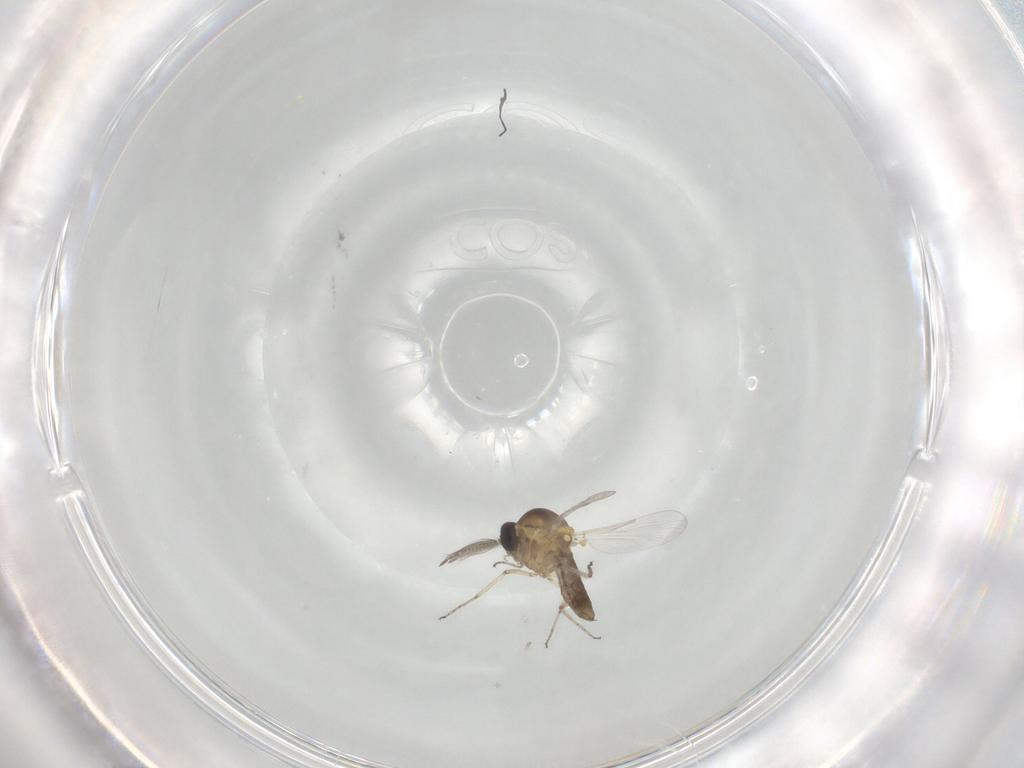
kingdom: Animalia
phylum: Arthropoda
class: Insecta
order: Diptera
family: Ceratopogonidae
